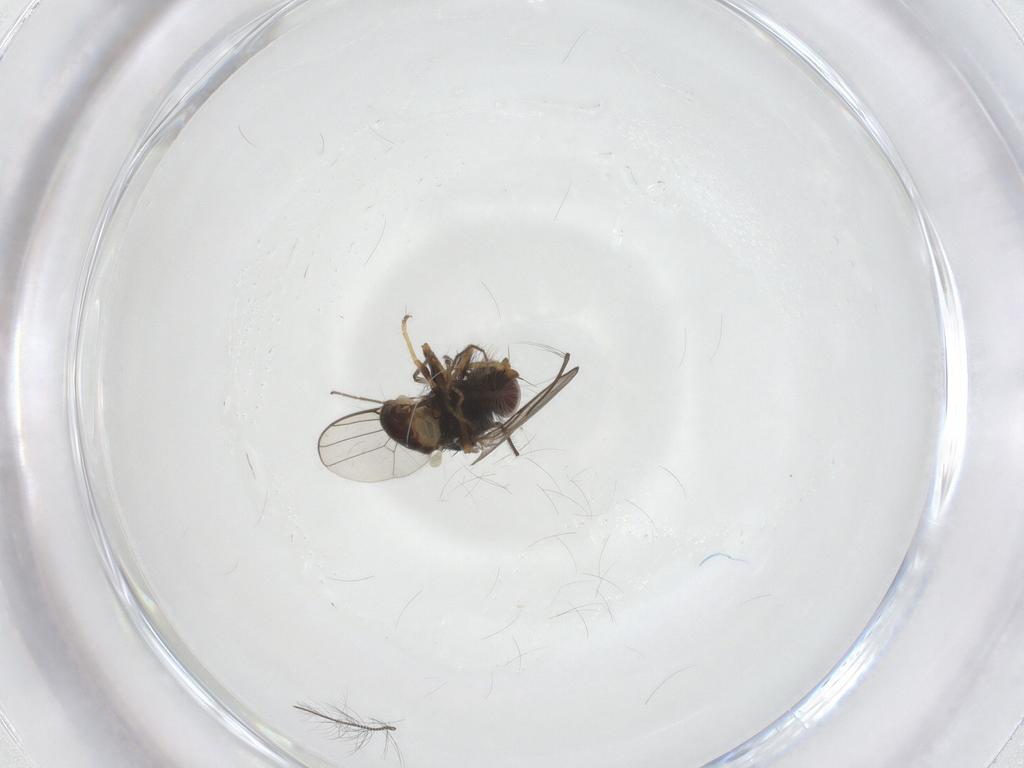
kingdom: Animalia
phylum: Arthropoda
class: Insecta
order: Diptera
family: Chloropidae
